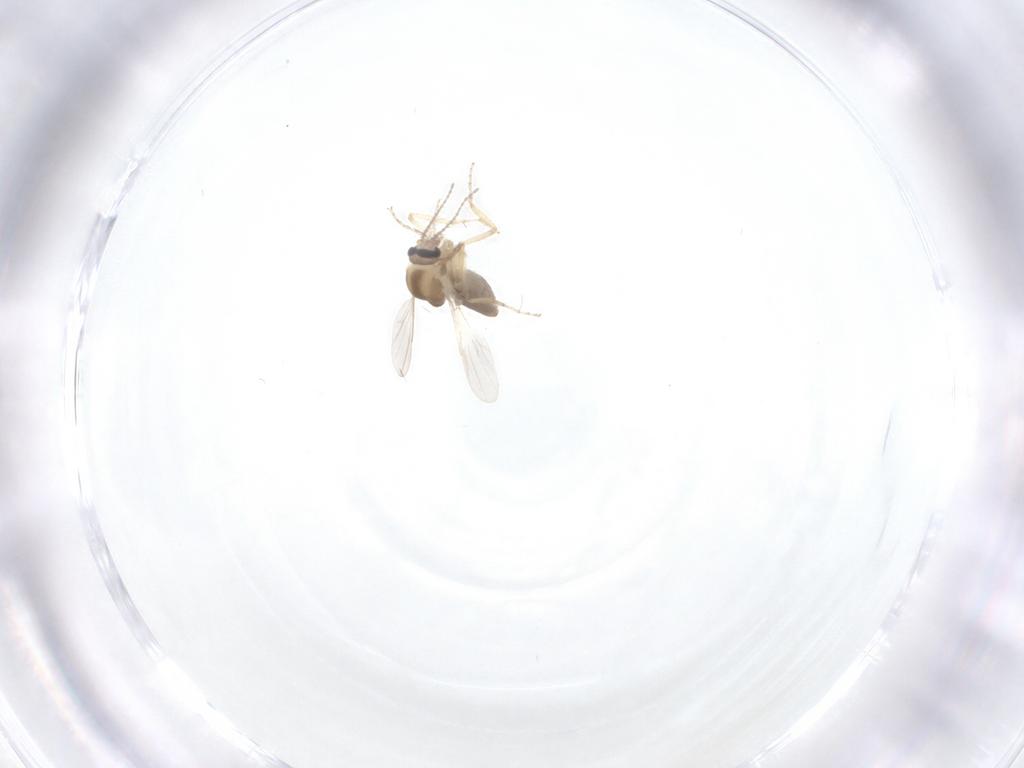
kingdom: Animalia
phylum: Arthropoda
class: Insecta
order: Diptera
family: Ceratopogonidae
